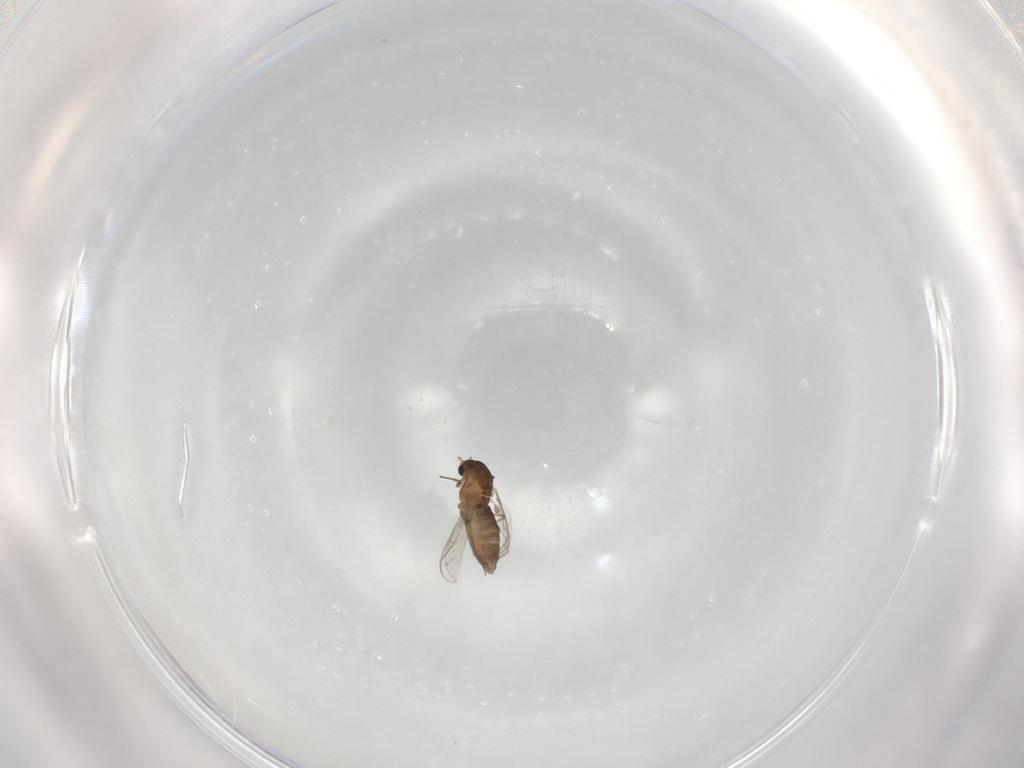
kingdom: Animalia
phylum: Arthropoda
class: Insecta
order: Diptera
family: Chironomidae
